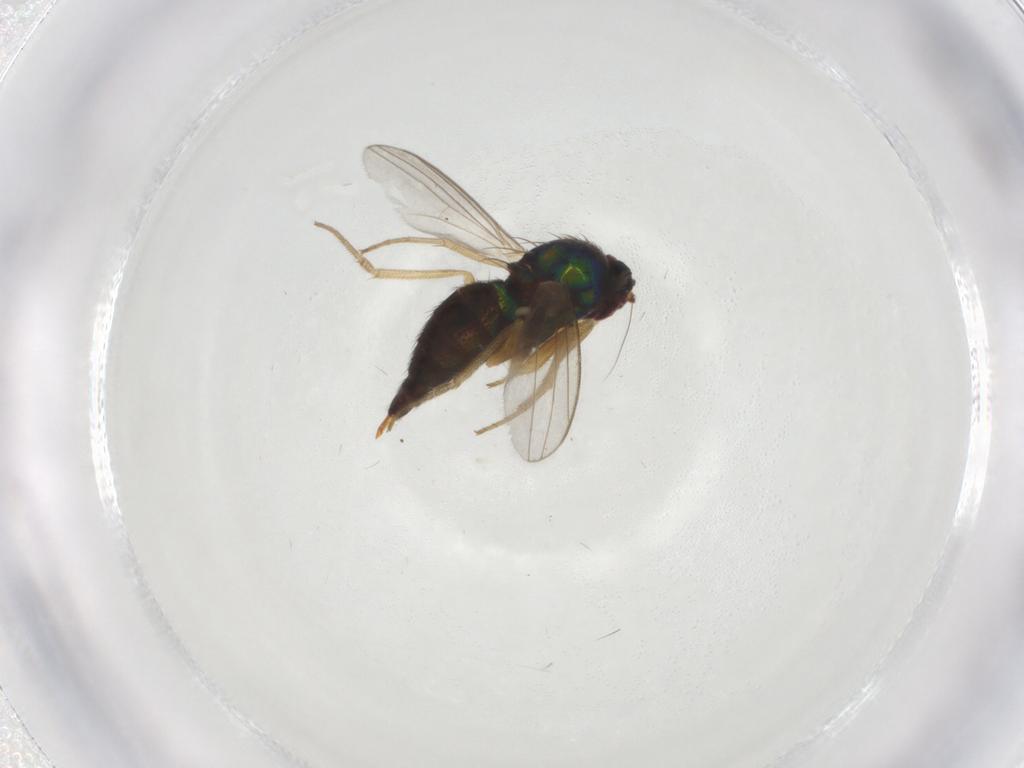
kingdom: Animalia
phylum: Arthropoda
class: Insecta
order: Diptera
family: Dolichopodidae
